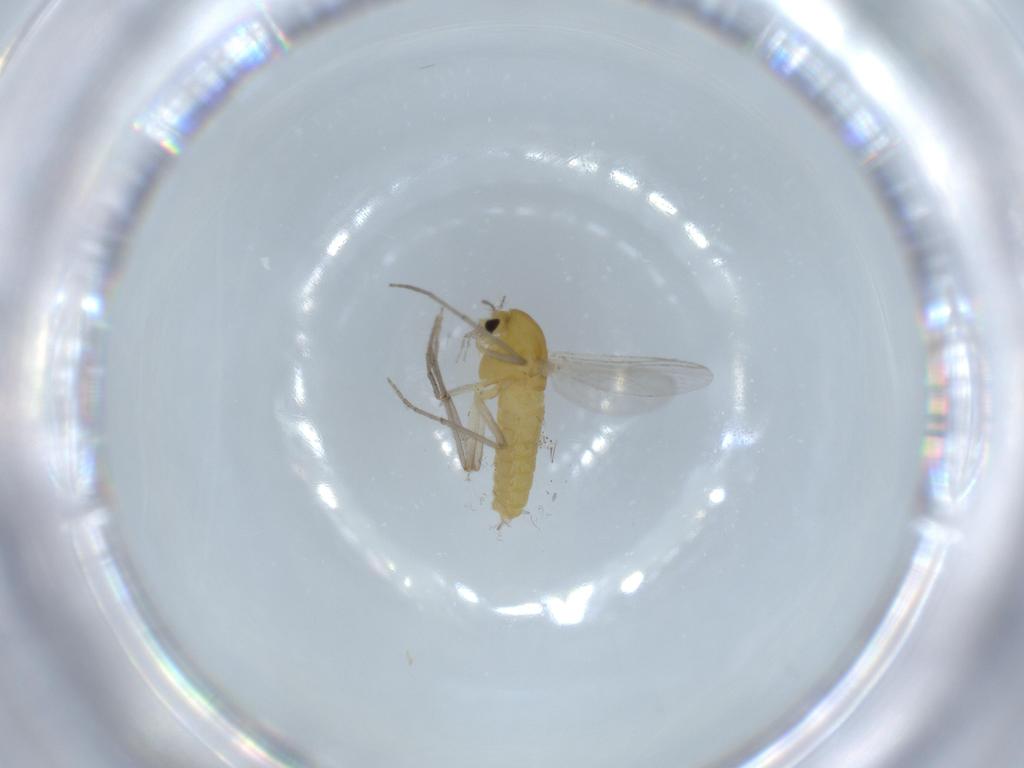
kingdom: Animalia
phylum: Arthropoda
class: Insecta
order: Diptera
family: Chironomidae
